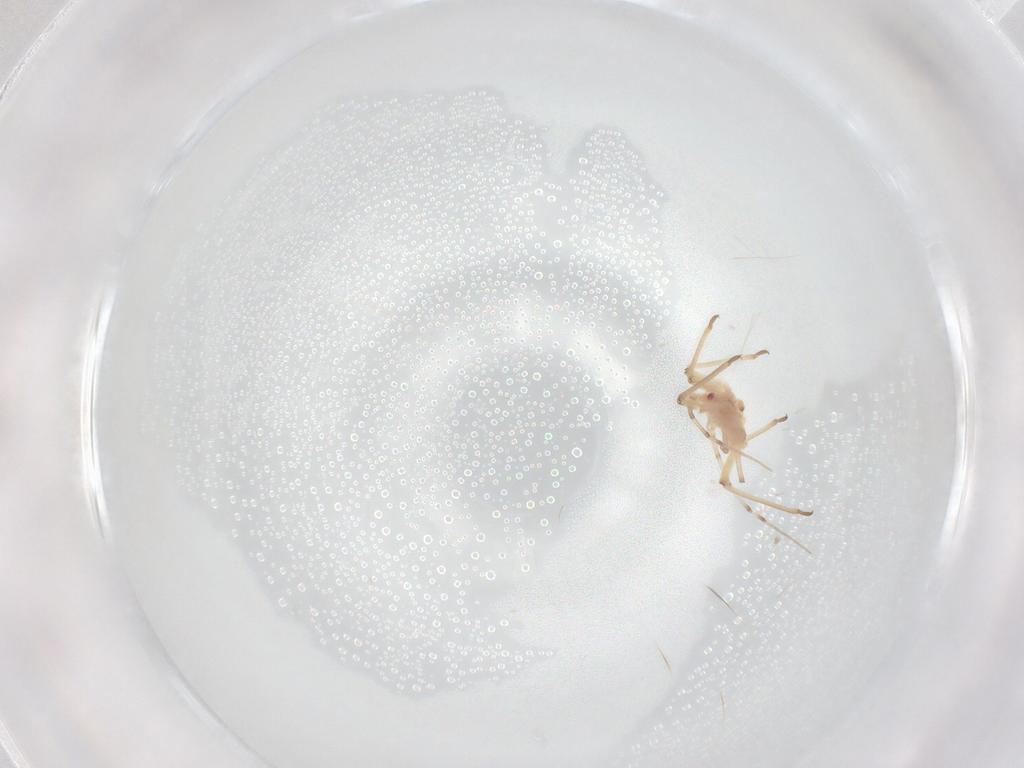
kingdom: Animalia
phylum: Arthropoda
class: Insecta
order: Hemiptera
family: Aphididae
